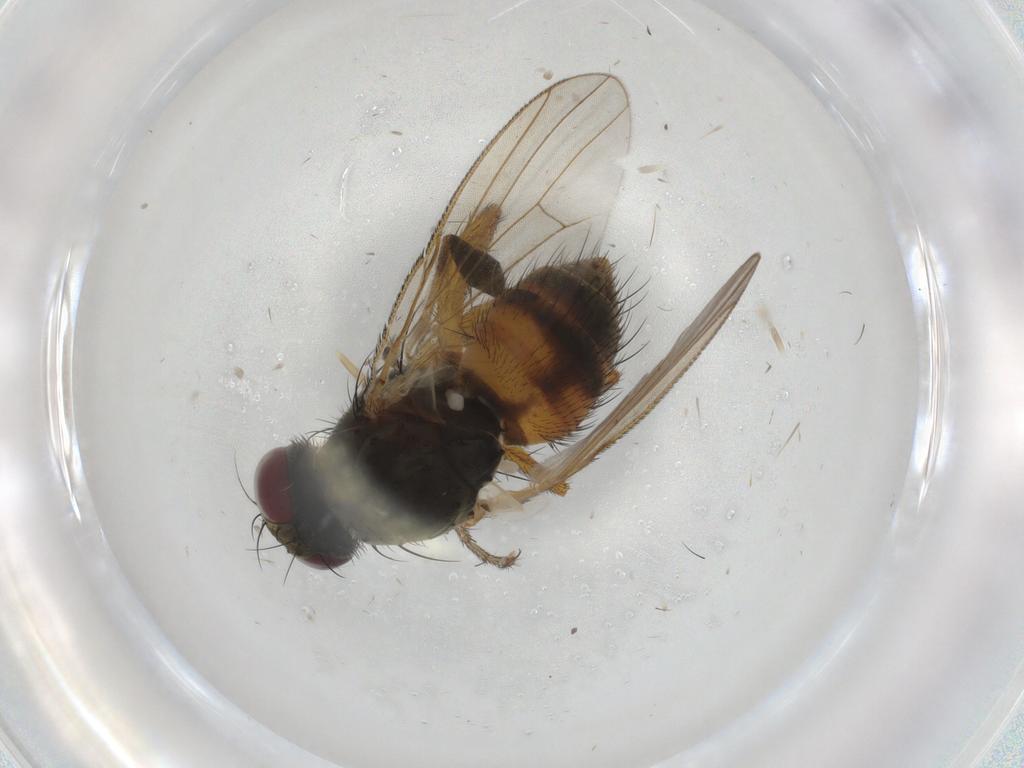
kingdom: Animalia
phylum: Arthropoda
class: Insecta
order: Diptera
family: Muscidae
